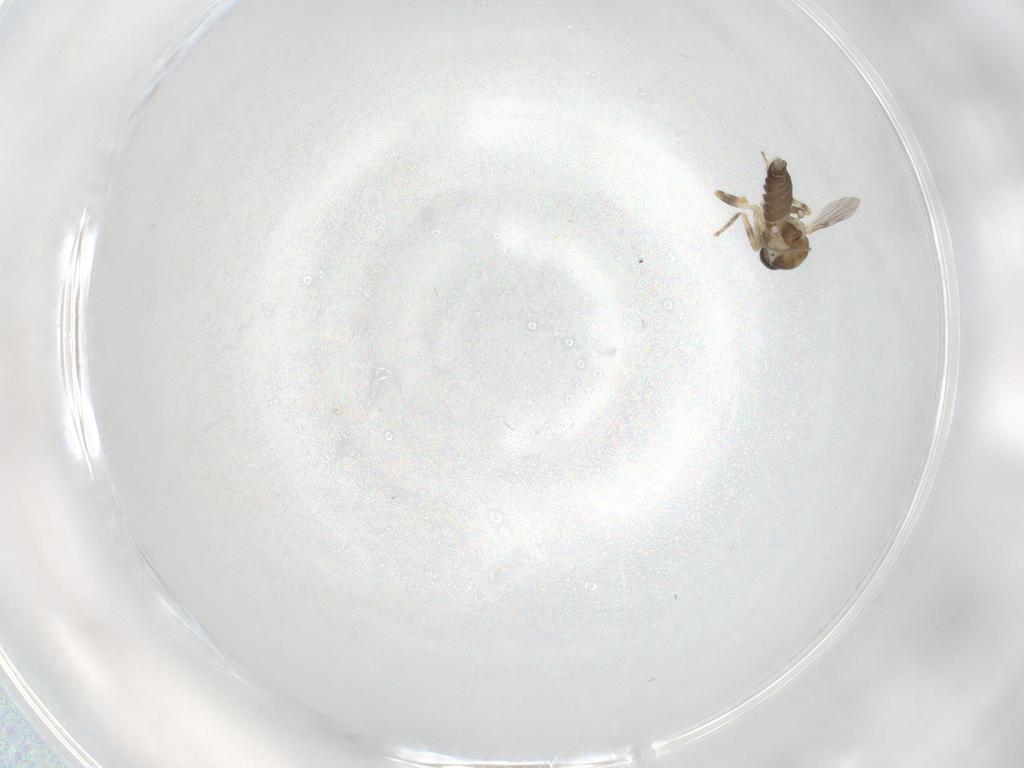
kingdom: Animalia
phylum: Arthropoda
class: Insecta
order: Diptera
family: Ceratopogonidae
